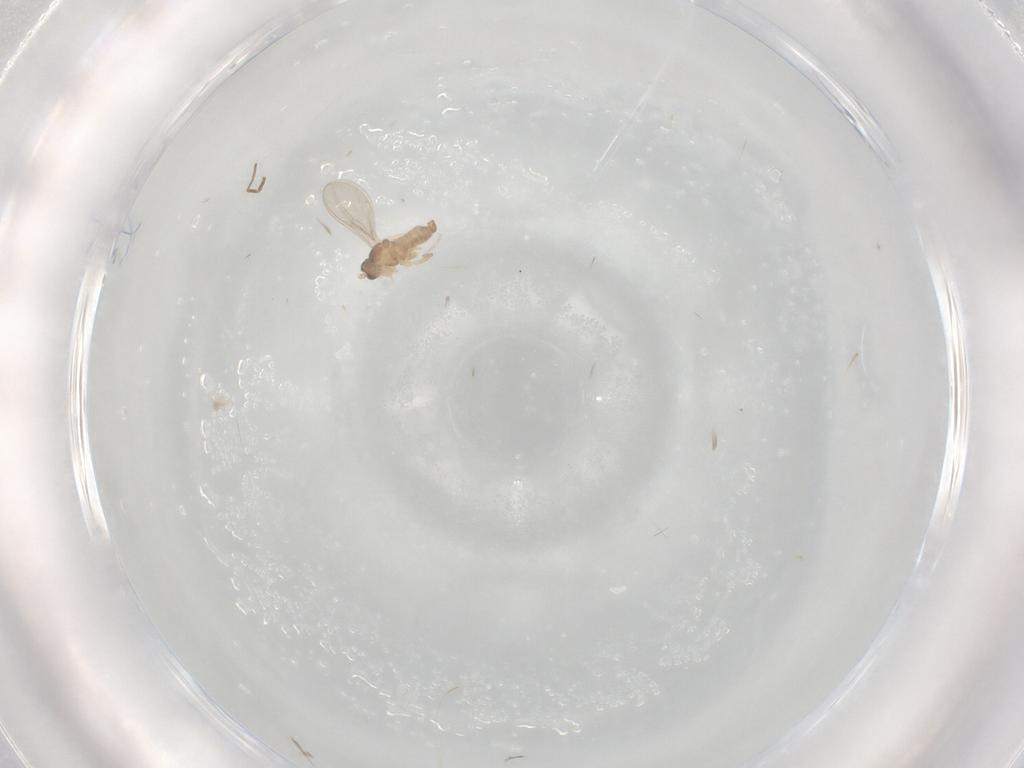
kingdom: Animalia
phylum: Arthropoda
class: Insecta
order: Diptera
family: Cecidomyiidae
